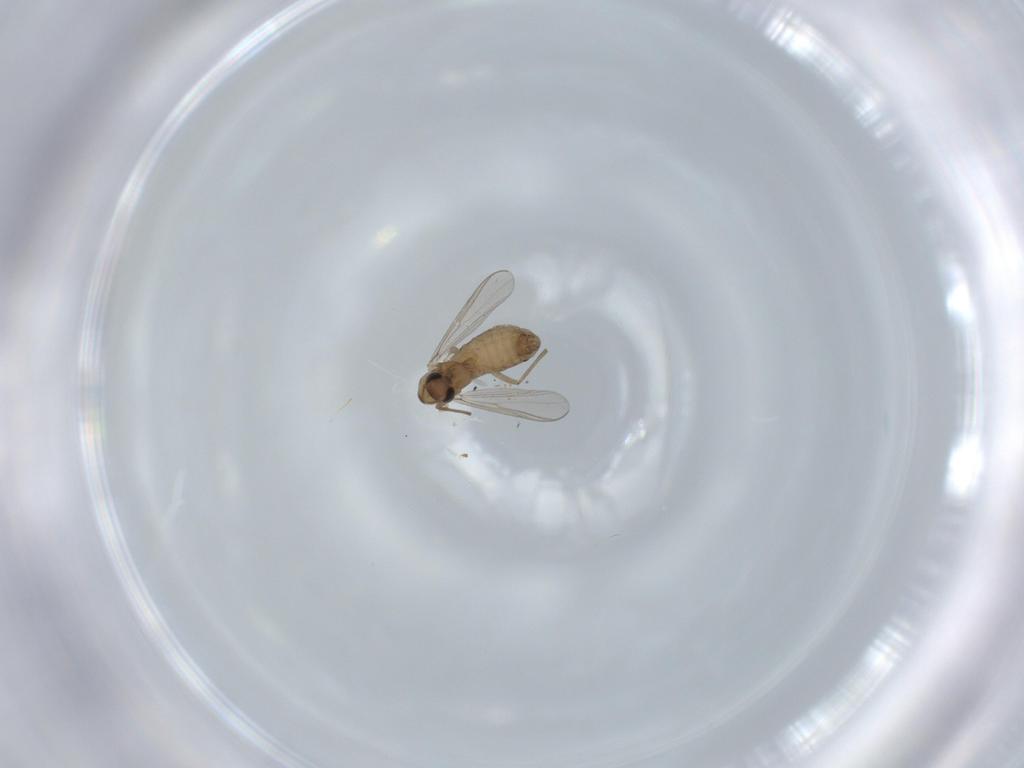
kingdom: Animalia
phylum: Arthropoda
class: Insecta
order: Diptera
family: Chironomidae
